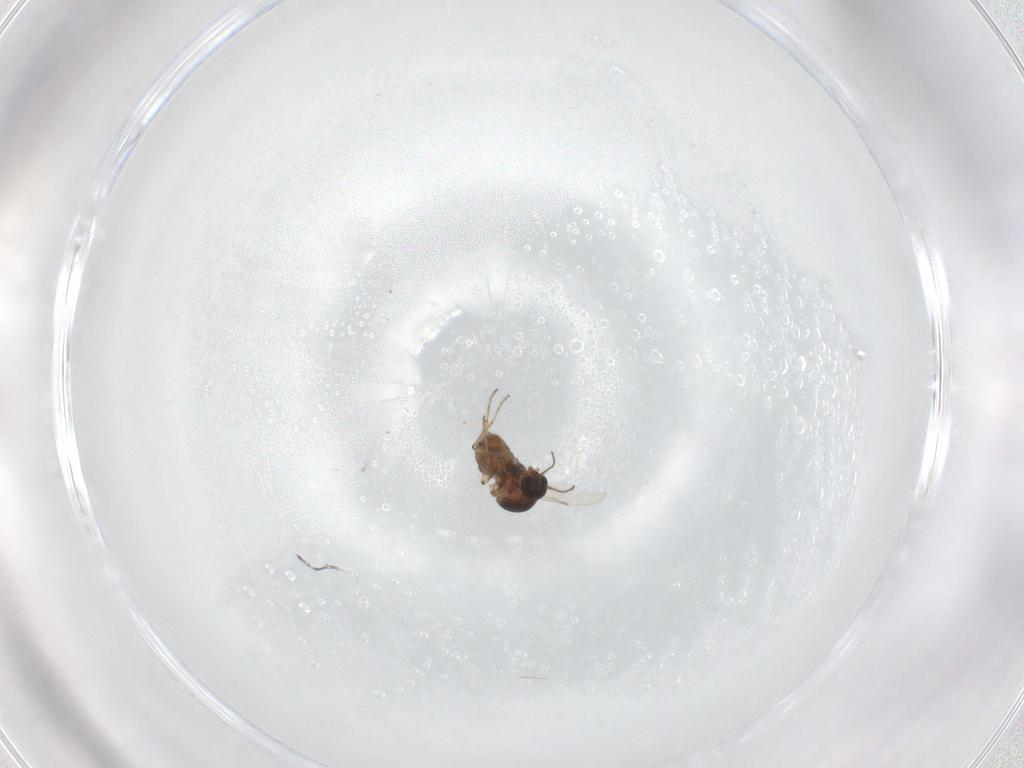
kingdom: Animalia
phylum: Arthropoda
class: Insecta
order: Diptera
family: Ceratopogonidae
